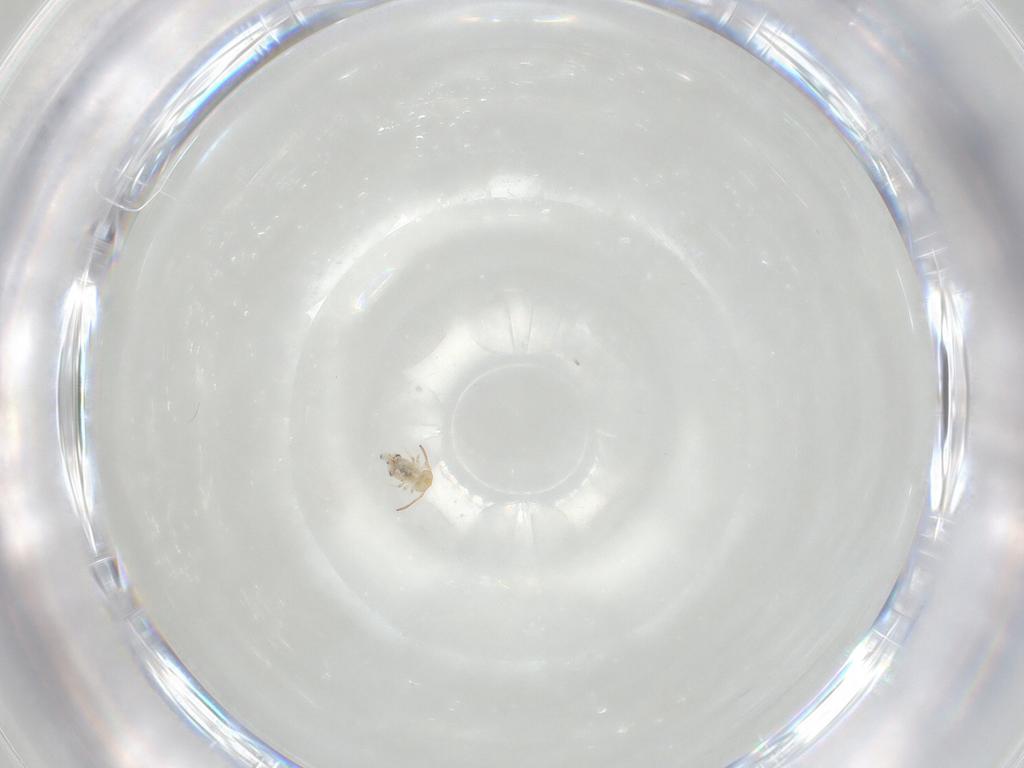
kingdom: Animalia
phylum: Arthropoda
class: Collembola
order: Symphypleona
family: Bourletiellidae
